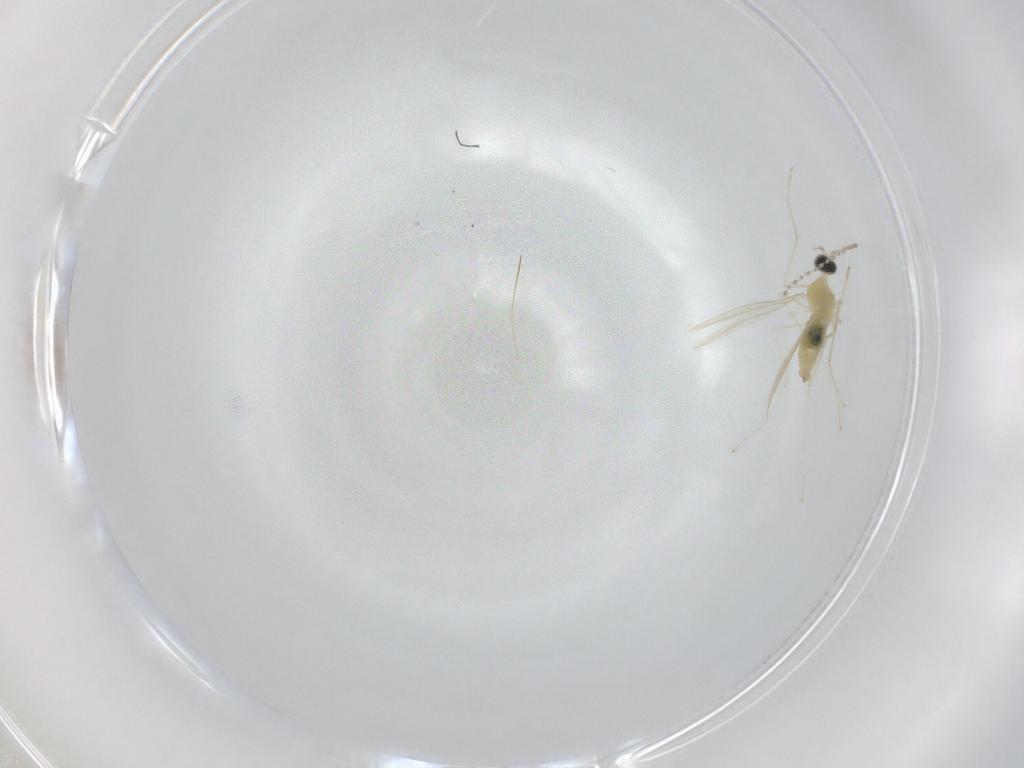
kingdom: Animalia
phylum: Arthropoda
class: Insecta
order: Diptera
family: Cecidomyiidae
